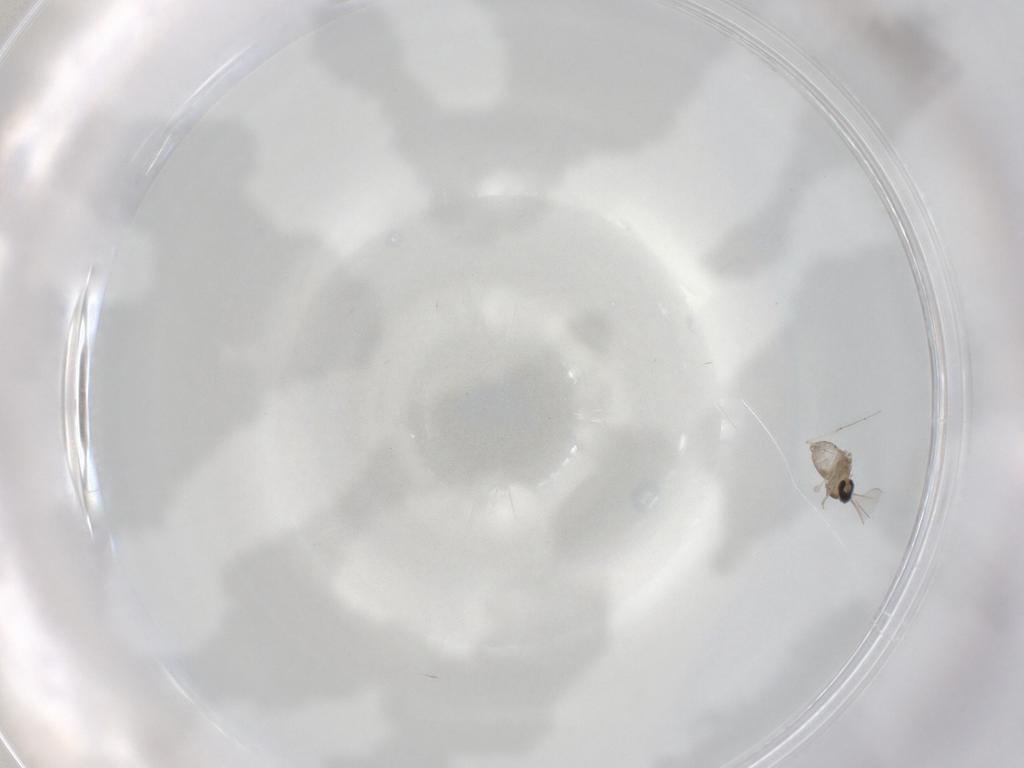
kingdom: Animalia
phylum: Arthropoda
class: Insecta
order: Diptera
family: Cecidomyiidae
